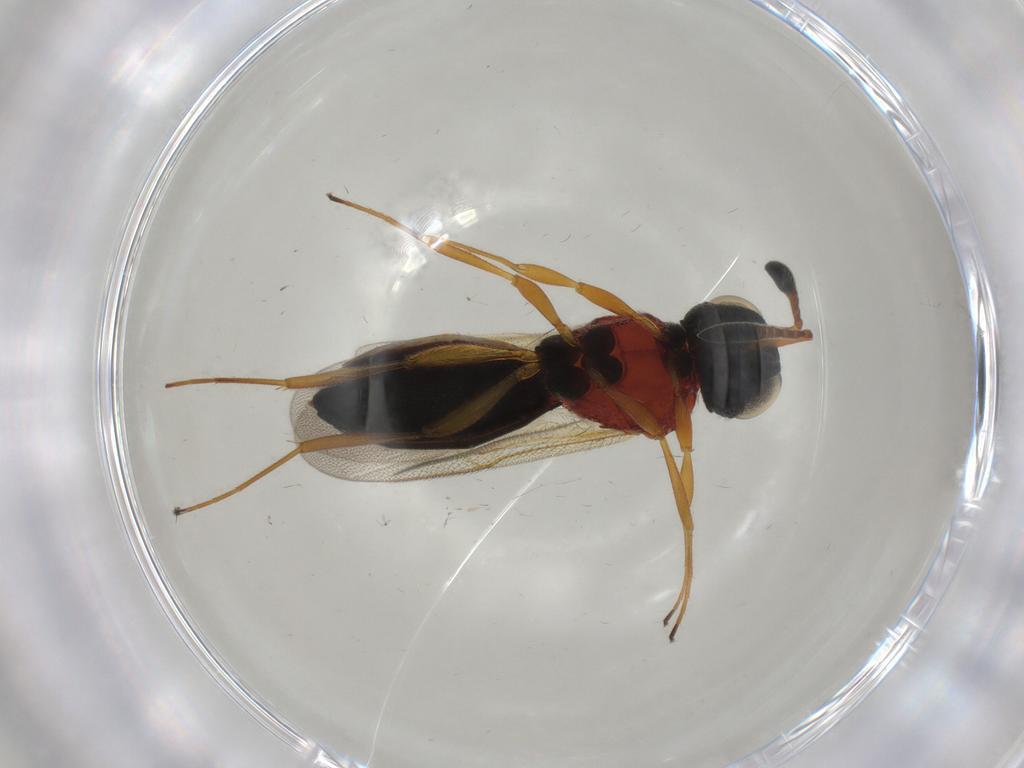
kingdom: Animalia
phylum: Arthropoda
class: Insecta
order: Hymenoptera
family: Scelionidae
